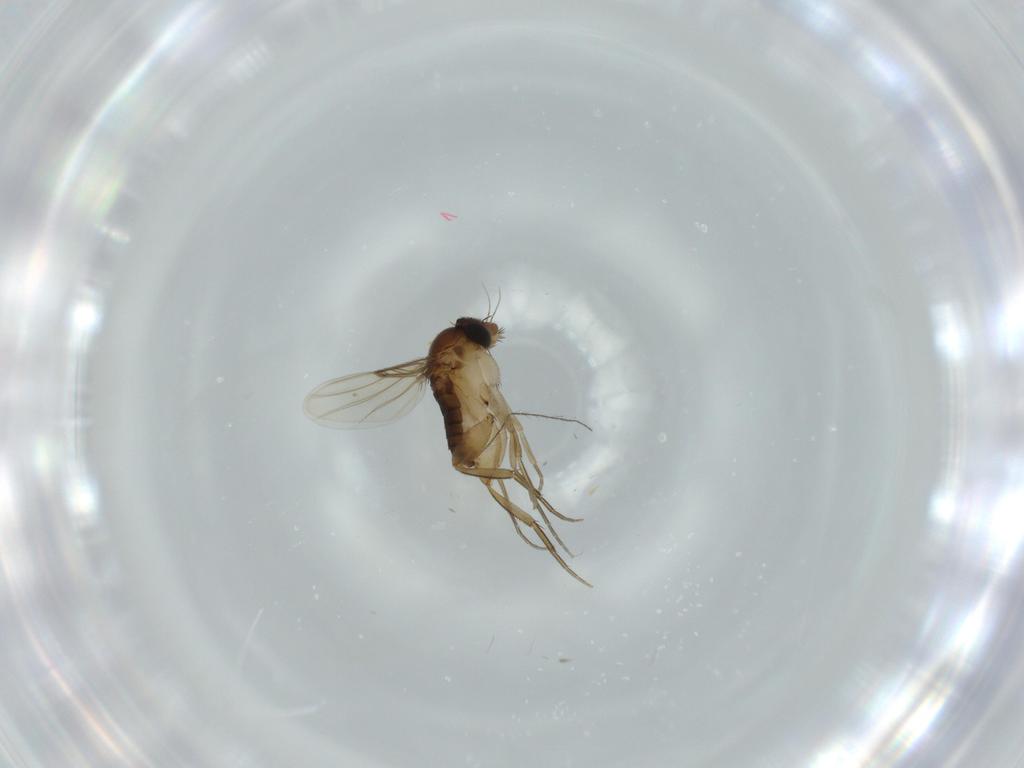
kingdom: Animalia
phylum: Arthropoda
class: Insecta
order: Diptera
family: Phoridae
